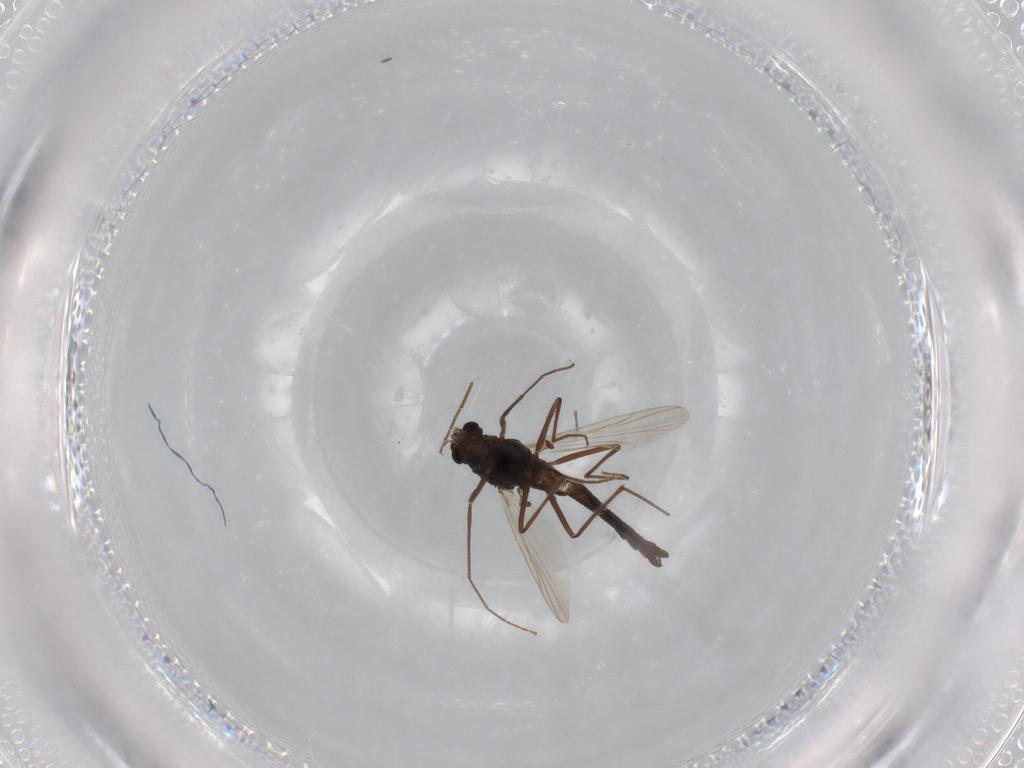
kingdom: Animalia
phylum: Arthropoda
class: Insecta
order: Diptera
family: Chironomidae
